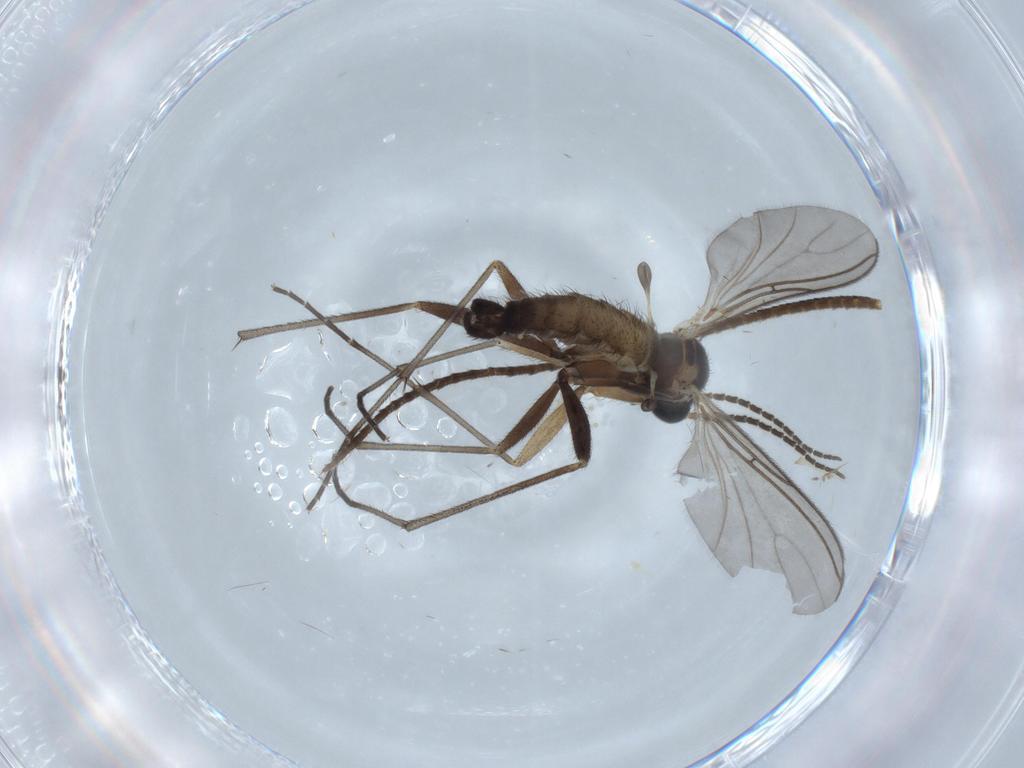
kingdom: Animalia
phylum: Arthropoda
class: Insecta
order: Diptera
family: Sciaridae
